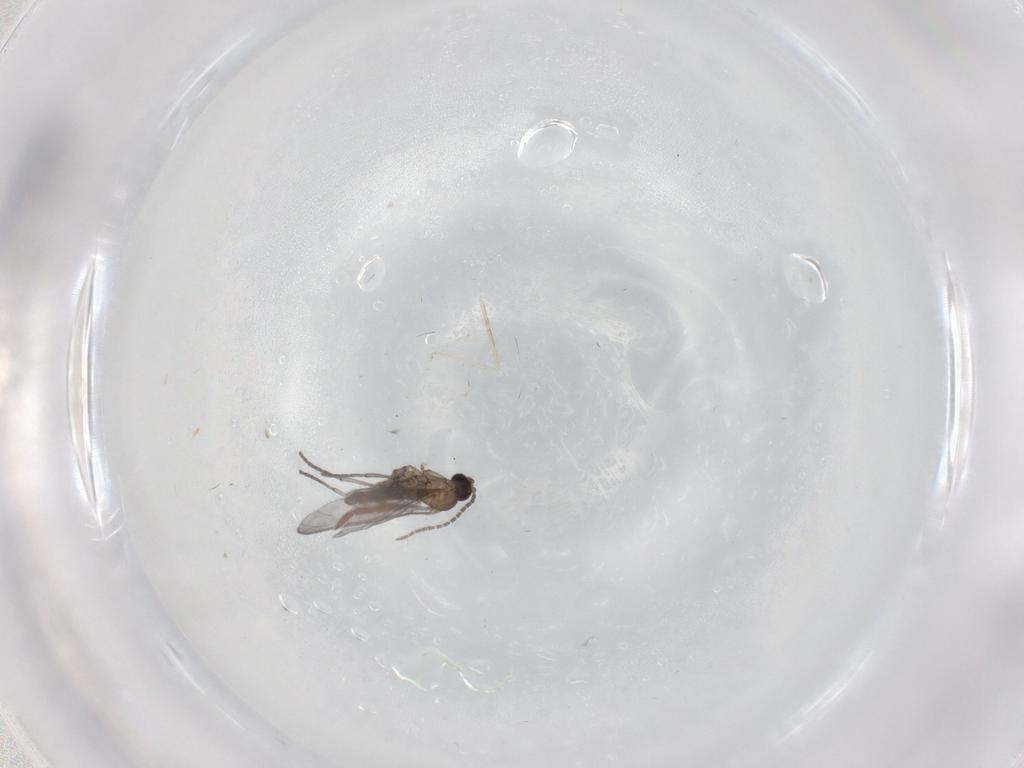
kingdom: Animalia
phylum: Arthropoda
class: Insecta
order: Diptera
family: Sciaridae
